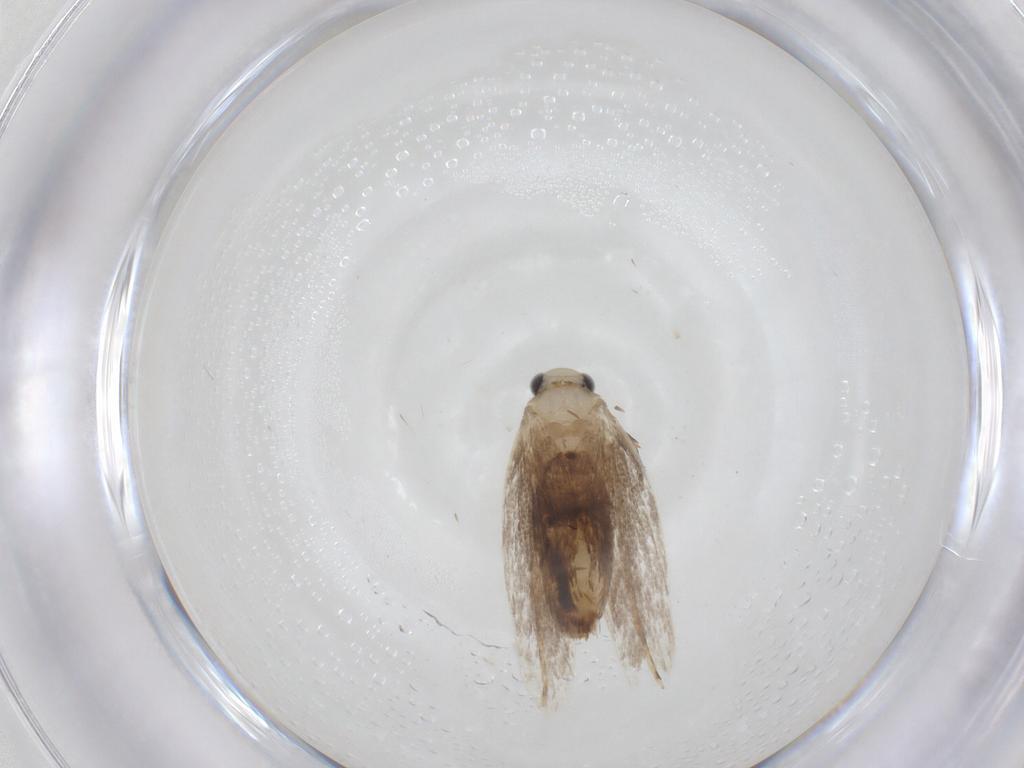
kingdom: Animalia
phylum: Arthropoda
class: Insecta
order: Lepidoptera
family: Dryadaulidae
